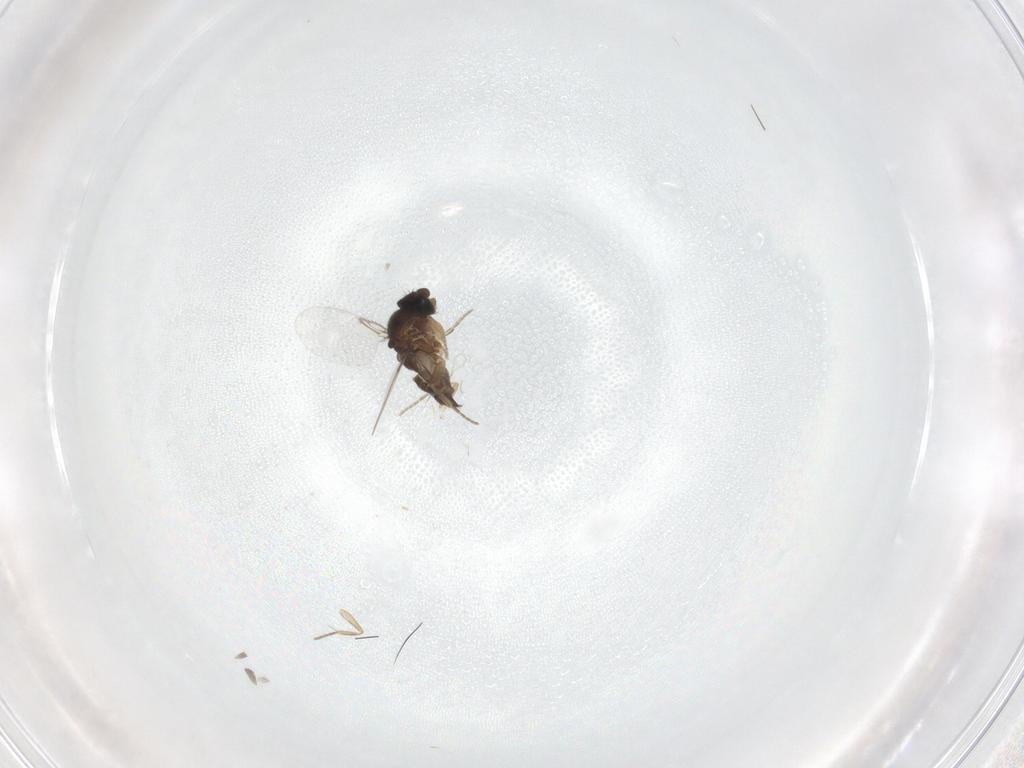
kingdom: Animalia
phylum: Arthropoda
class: Insecta
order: Diptera
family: Phoridae
